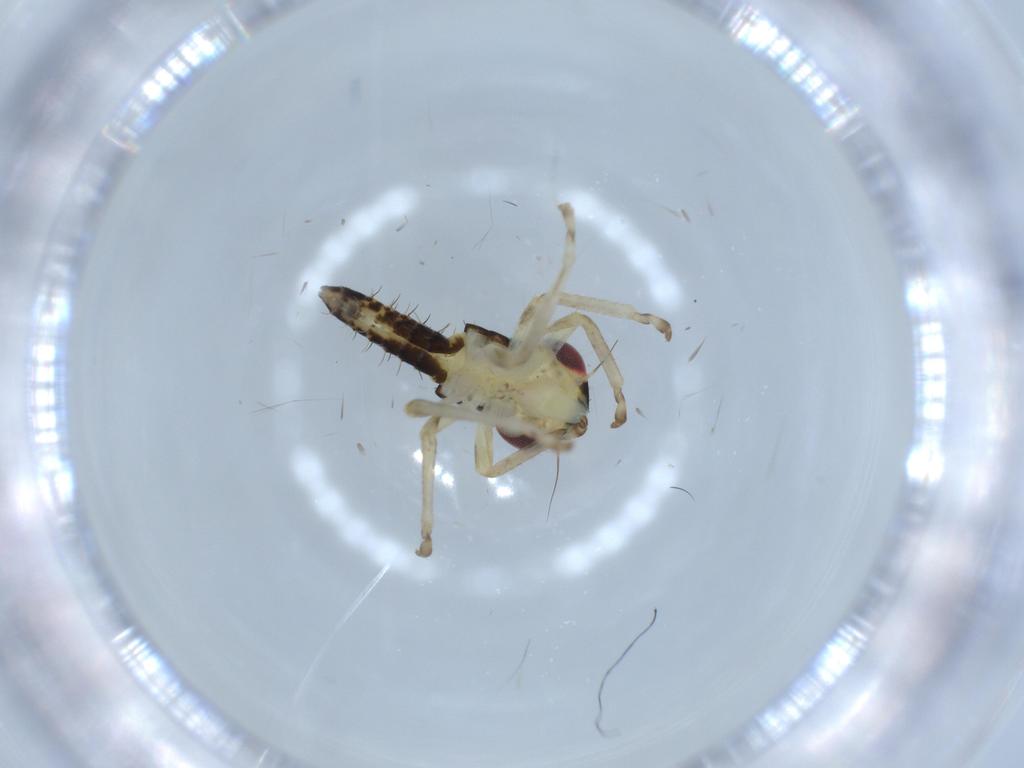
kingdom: Animalia
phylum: Arthropoda
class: Insecta
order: Hemiptera
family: Cicadellidae
